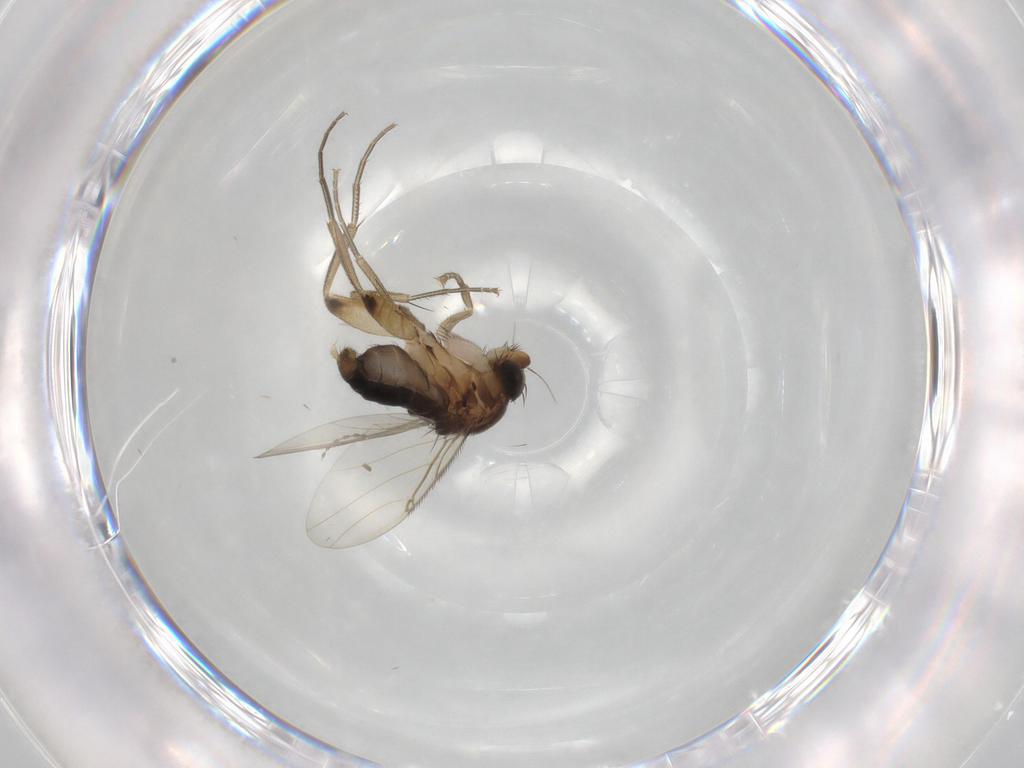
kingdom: Animalia
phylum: Arthropoda
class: Insecta
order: Diptera
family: Phoridae
